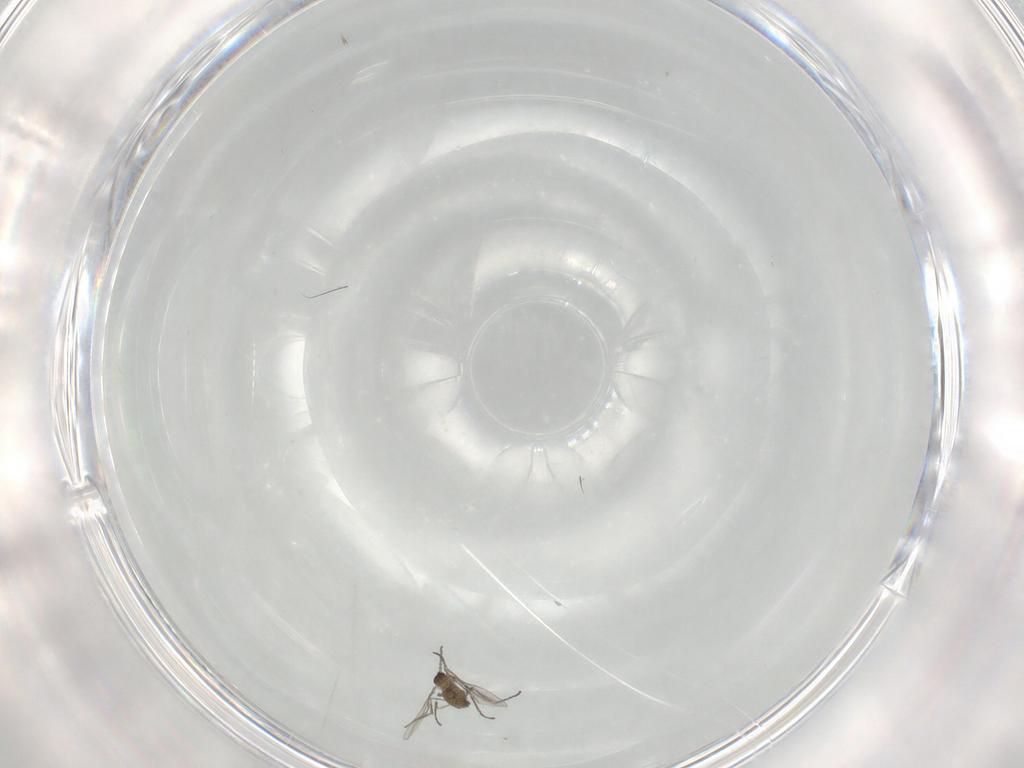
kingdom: Animalia
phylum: Arthropoda
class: Insecta
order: Diptera
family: Cecidomyiidae
